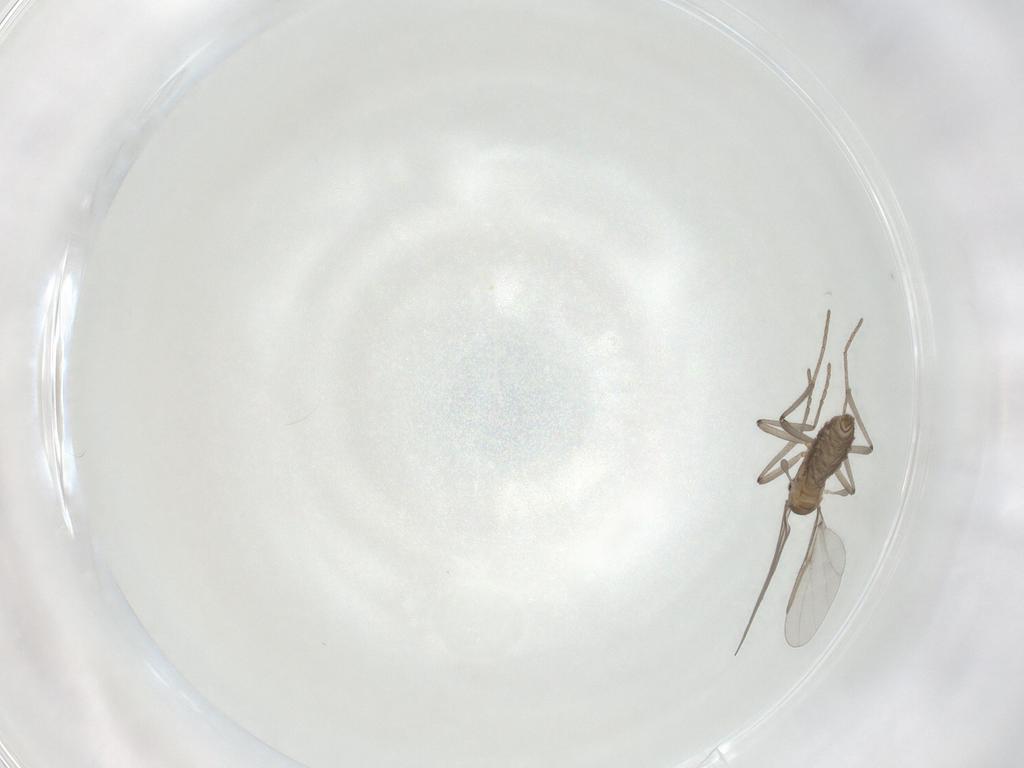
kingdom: Animalia
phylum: Arthropoda
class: Insecta
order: Diptera
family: Cecidomyiidae
